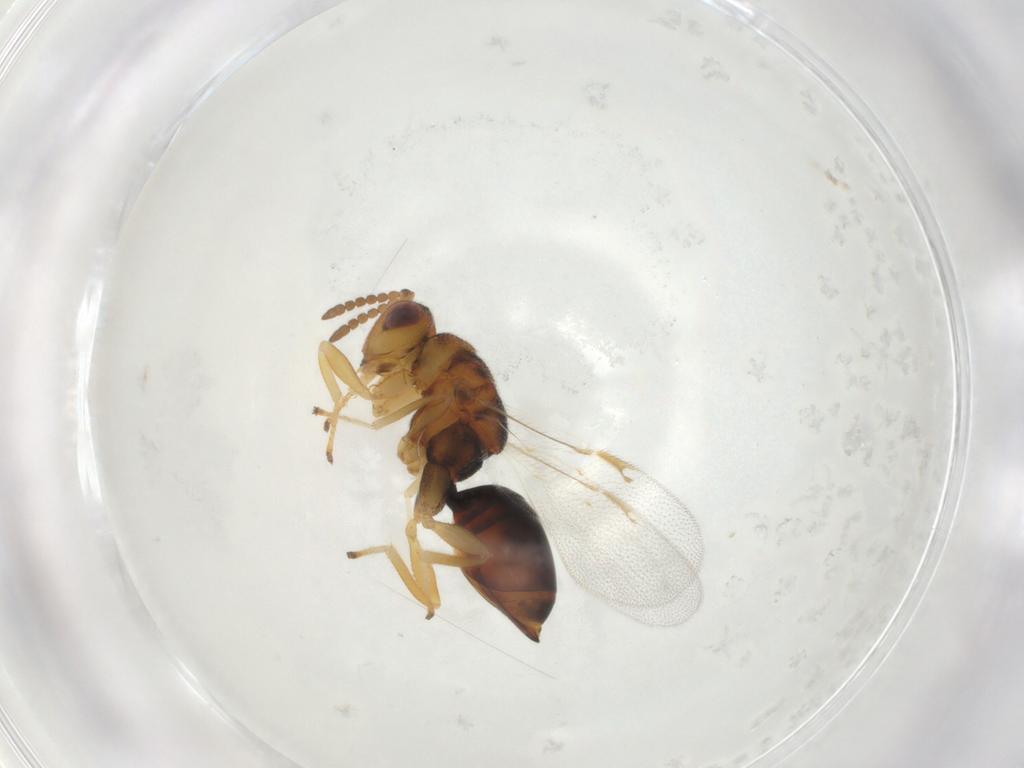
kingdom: Animalia
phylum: Arthropoda
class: Insecta
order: Hymenoptera
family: Eurytomidae
